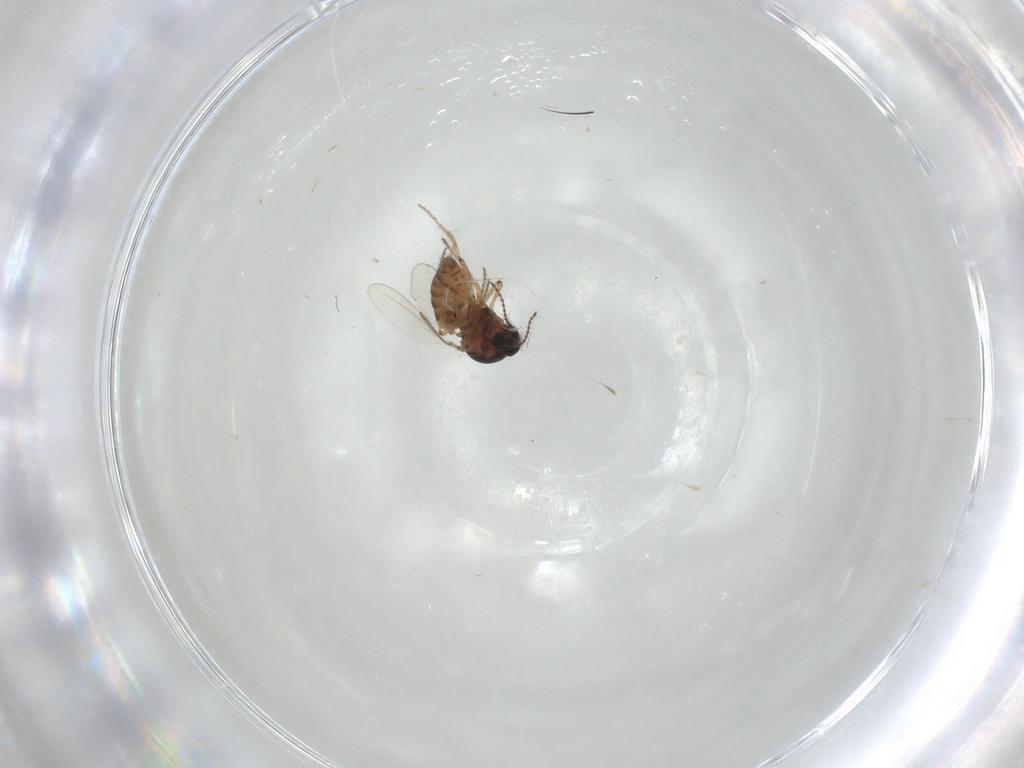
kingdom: Animalia
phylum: Arthropoda
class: Insecta
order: Diptera
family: Ceratopogonidae
